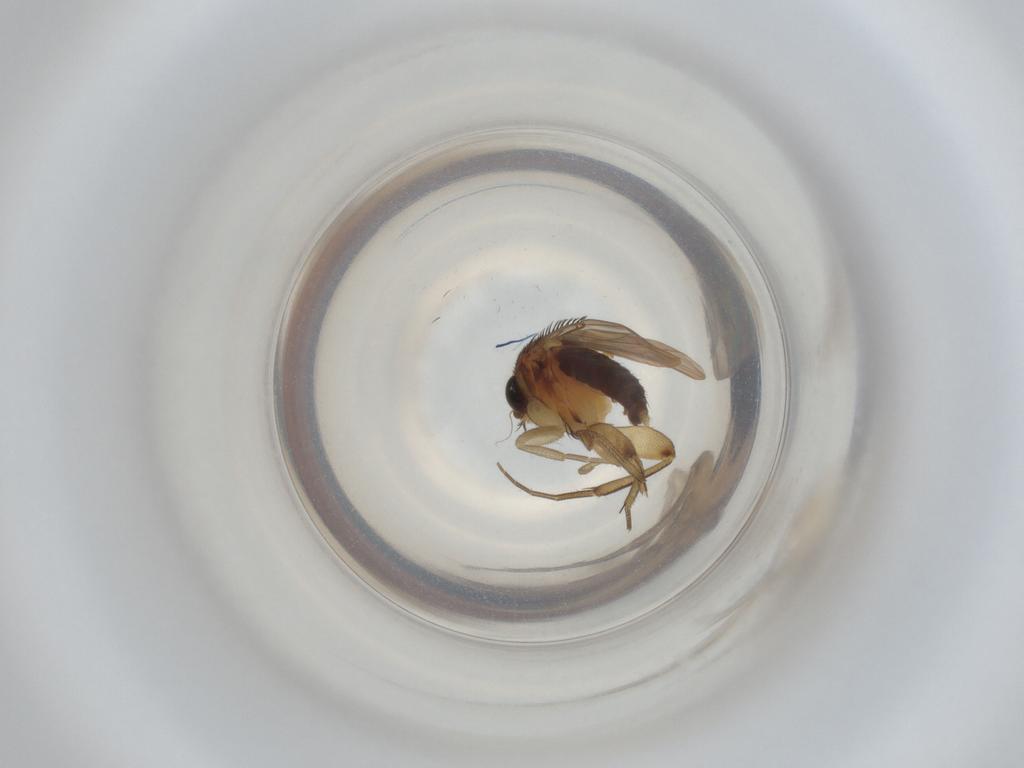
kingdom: Animalia
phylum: Arthropoda
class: Insecta
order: Diptera
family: Phoridae
